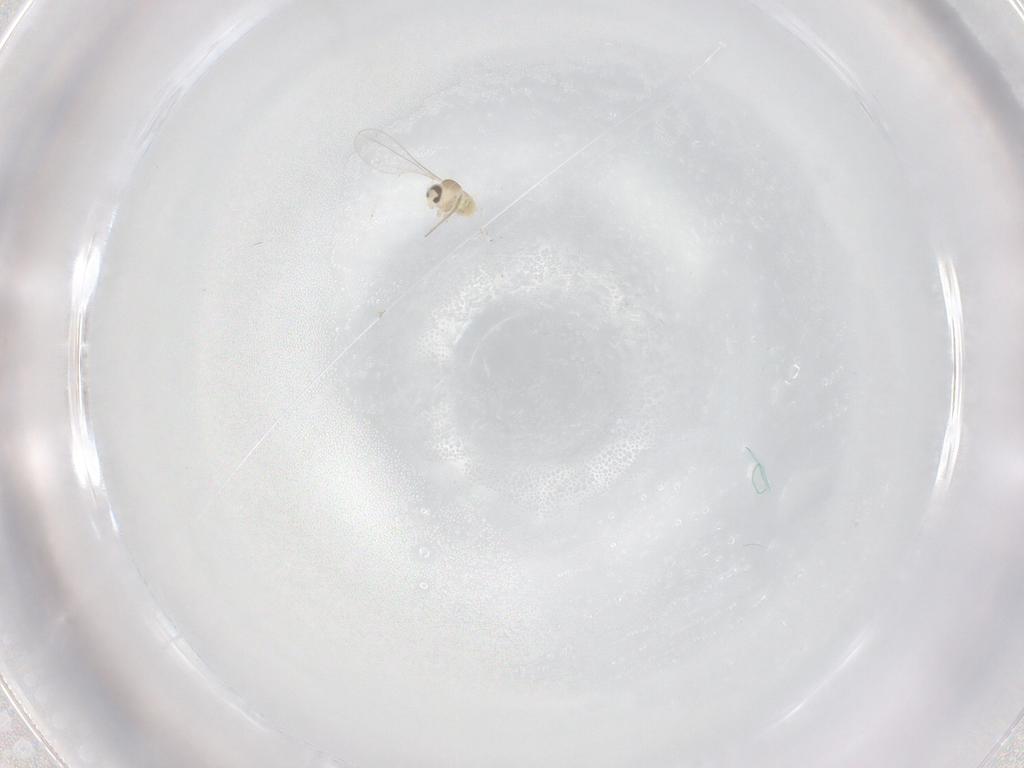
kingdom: Animalia
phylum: Arthropoda
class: Insecta
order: Diptera
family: Cecidomyiidae
